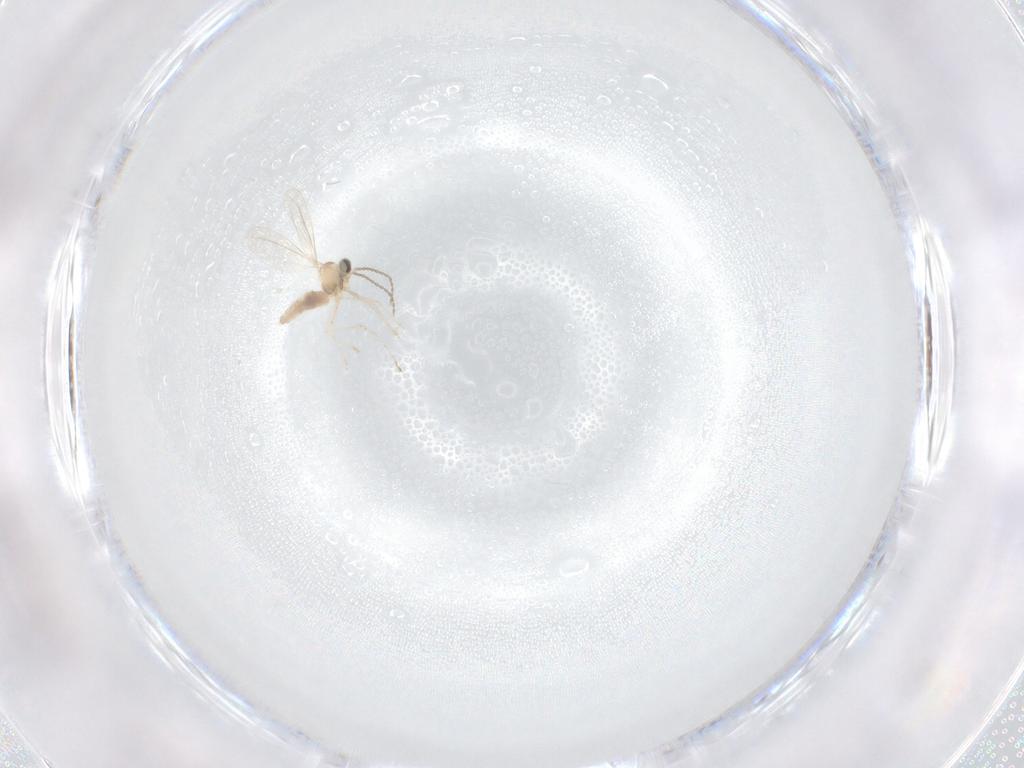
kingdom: Animalia
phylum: Arthropoda
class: Insecta
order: Diptera
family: Cecidomyiidae
